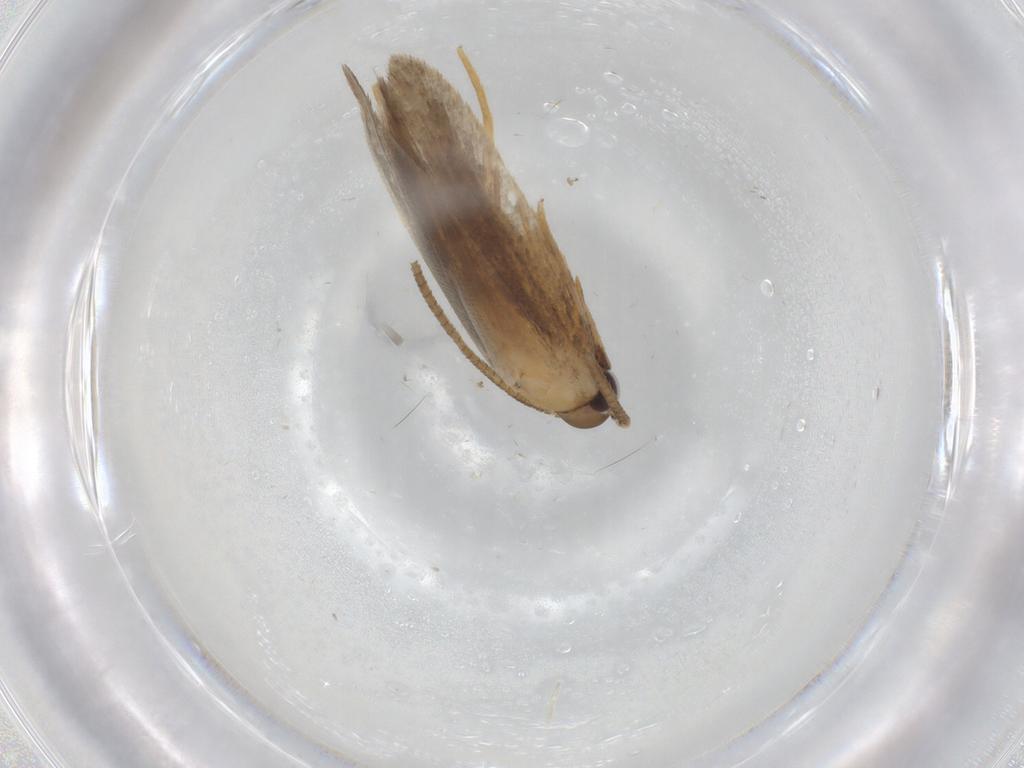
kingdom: Animalia
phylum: Arthropoda
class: Insecta
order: Lepidoptera
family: Autostichidae
